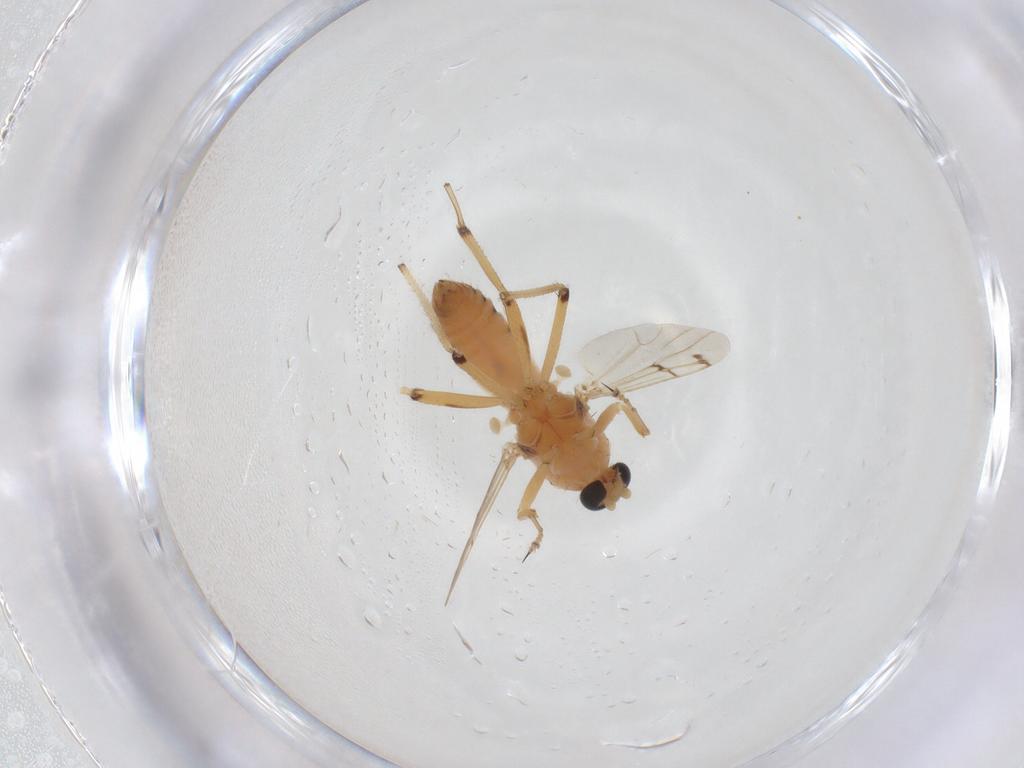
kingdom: Animalia
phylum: Arthropoda
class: Insecta
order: Diptera
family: Ceratopogonidae
